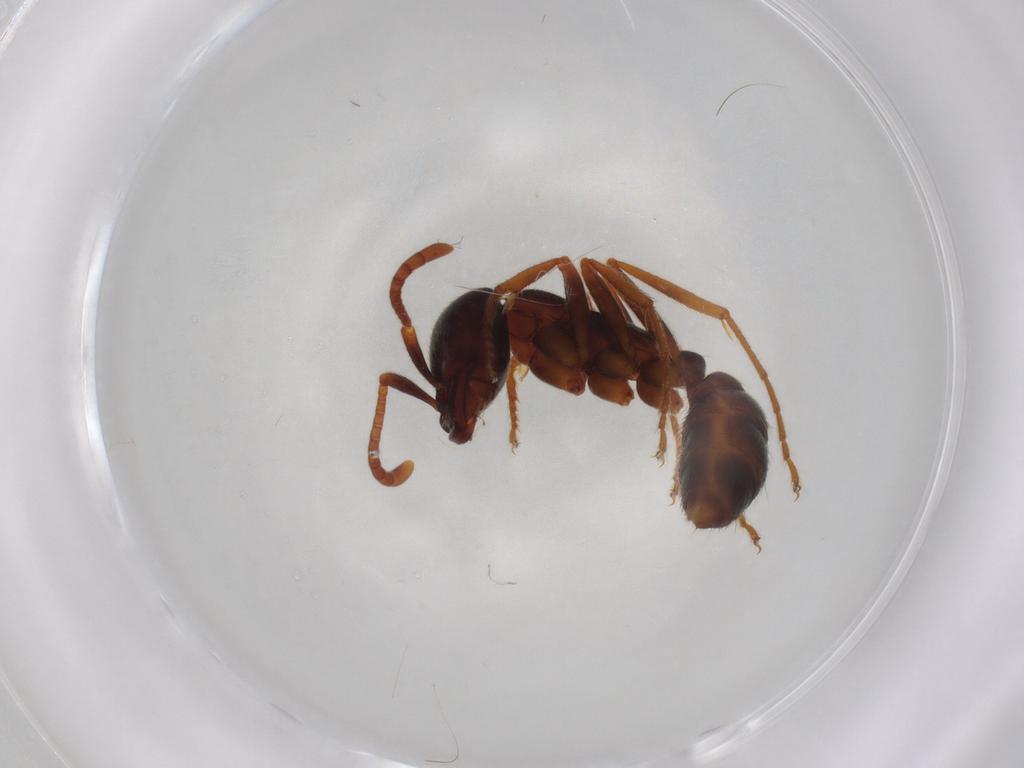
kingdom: Animalia
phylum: Arthropoda
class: Insecta
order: Hymenoptera
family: Formicidae
